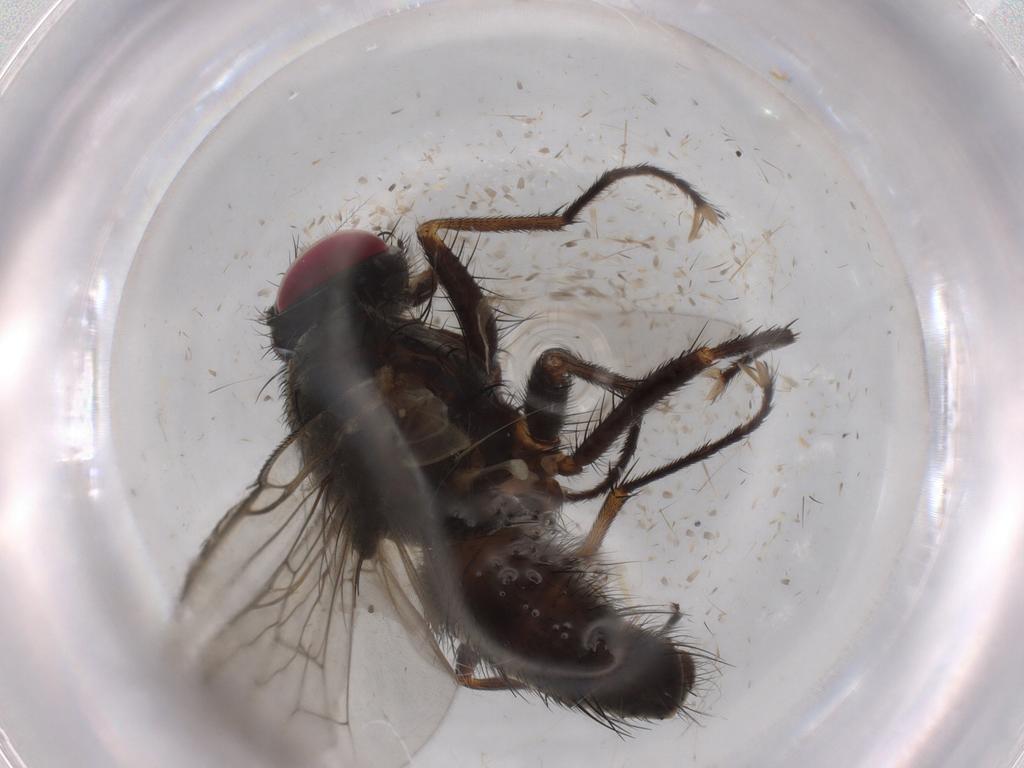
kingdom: Animalia
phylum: Arthropoda
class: Insecta
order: Diptera
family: Muscidae
